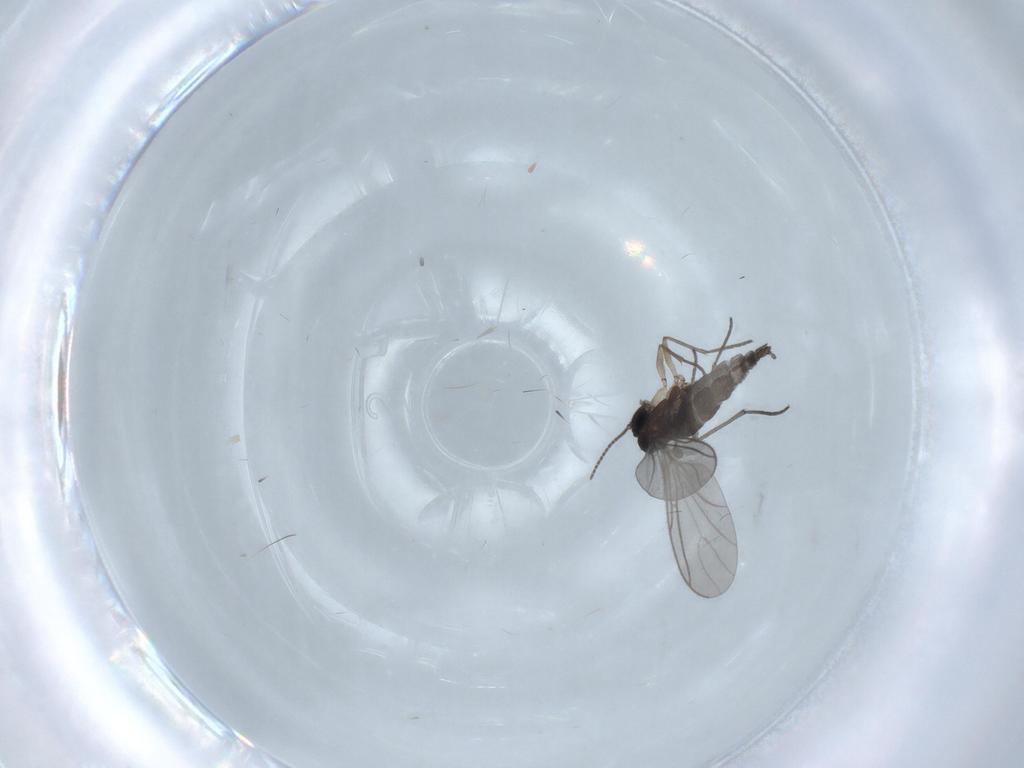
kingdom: Animalia
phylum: Arthropoda
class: Insecta
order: Diptera
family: Sciaridae
